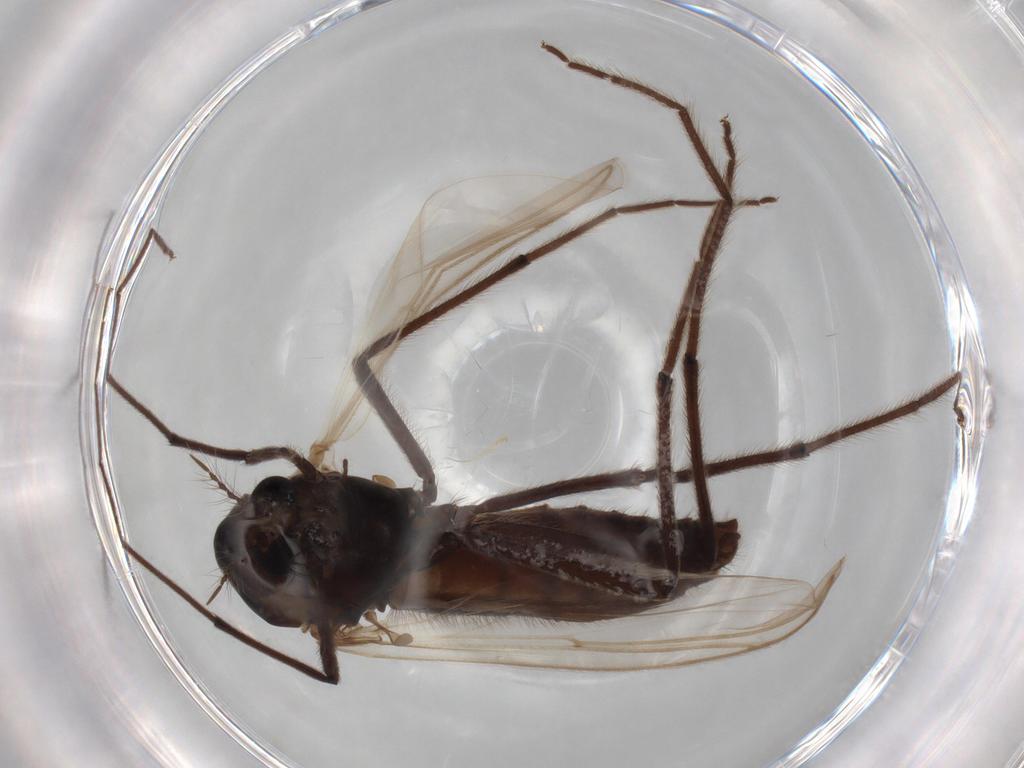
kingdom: Animalia
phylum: Arthropoda
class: Insecta
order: Diptera
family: Chironomidae
